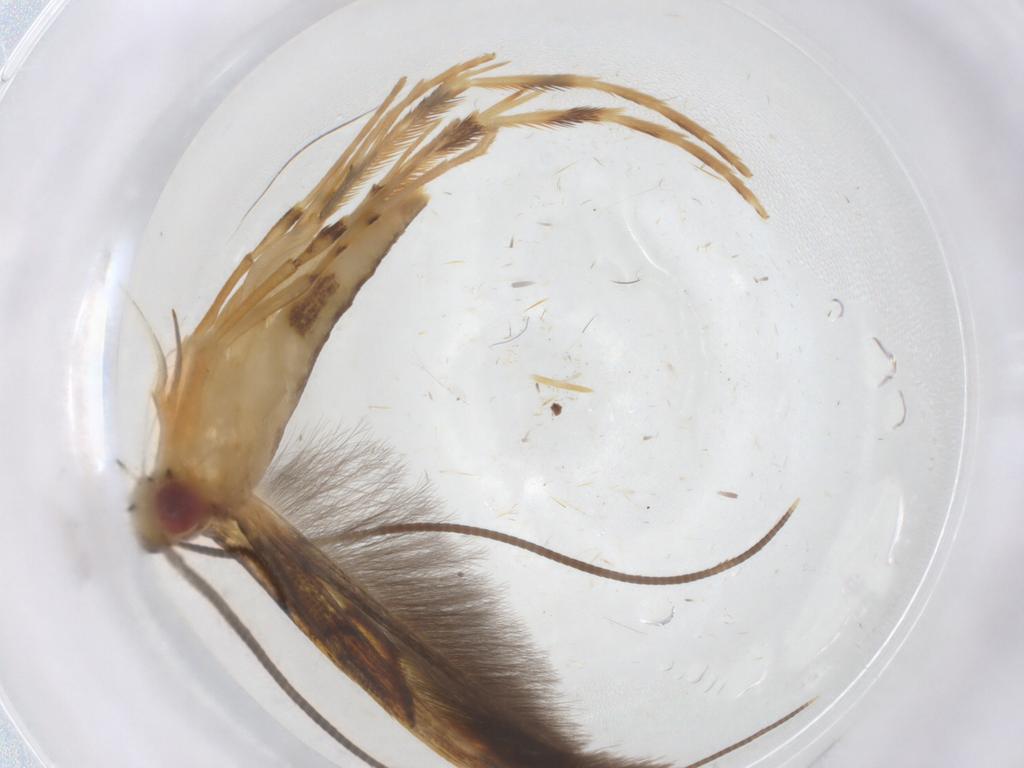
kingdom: Animalia
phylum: Arthropoda
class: Insecta
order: Lepidoptera
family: Gracillariidae
